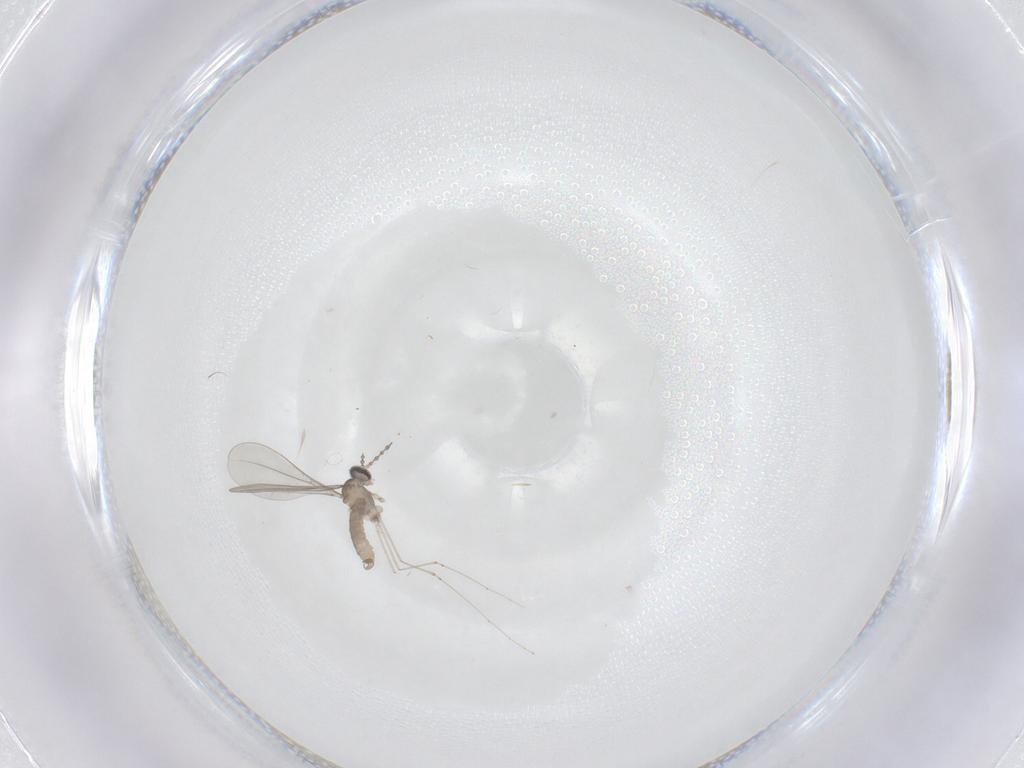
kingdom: Animalia
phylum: Arthropoda
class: Insecta
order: Diptera
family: Cecidomyiidae
